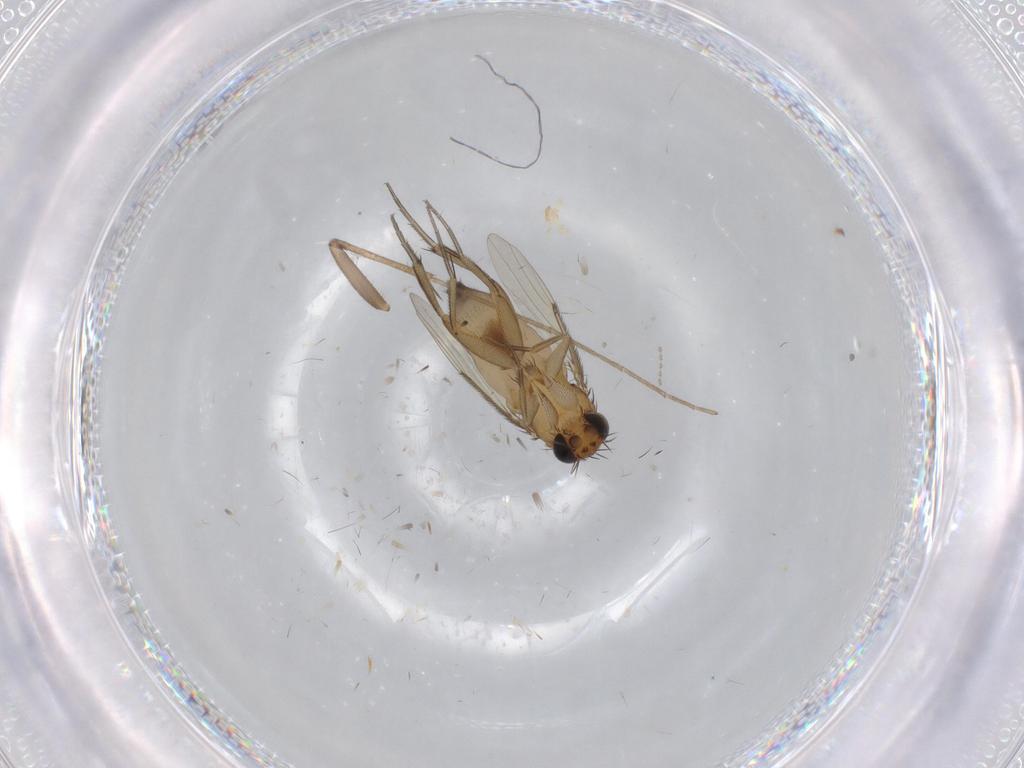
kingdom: Animalia
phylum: Arthropoda
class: Insecta
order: Diptera
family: Phoridae
